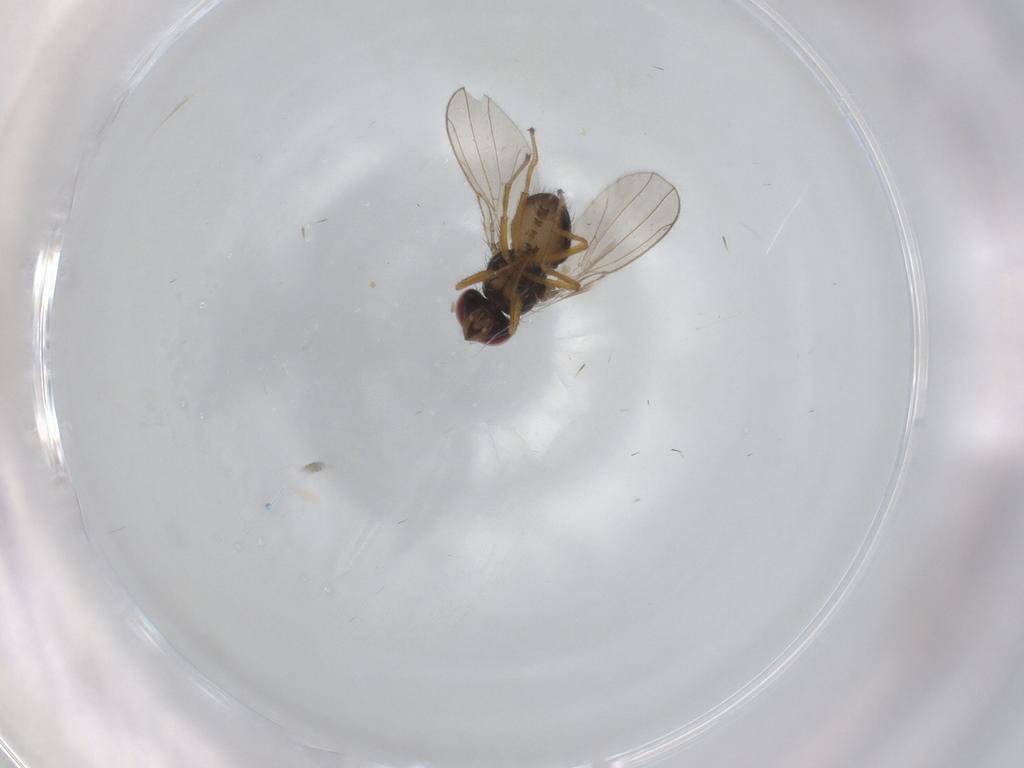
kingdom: Animalia
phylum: Arthropoda
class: Insecta
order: Diptera
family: Ephydridae
